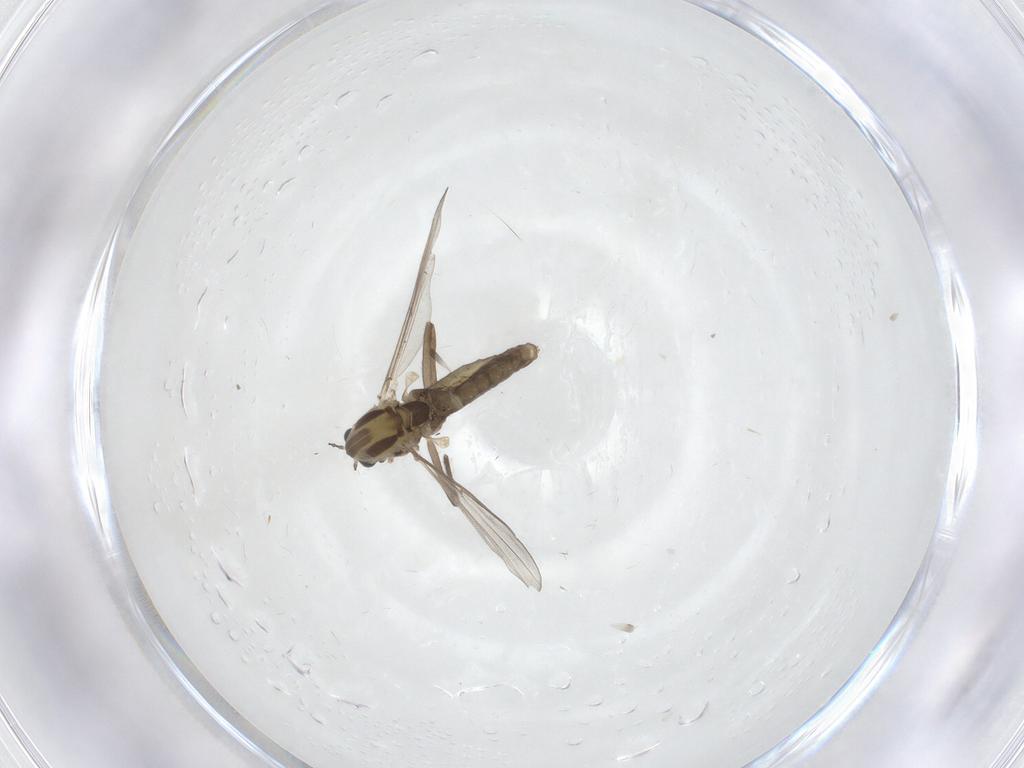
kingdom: Animalia
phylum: Arthropoda
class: Insecta
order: Diptera
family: Chironomidae
